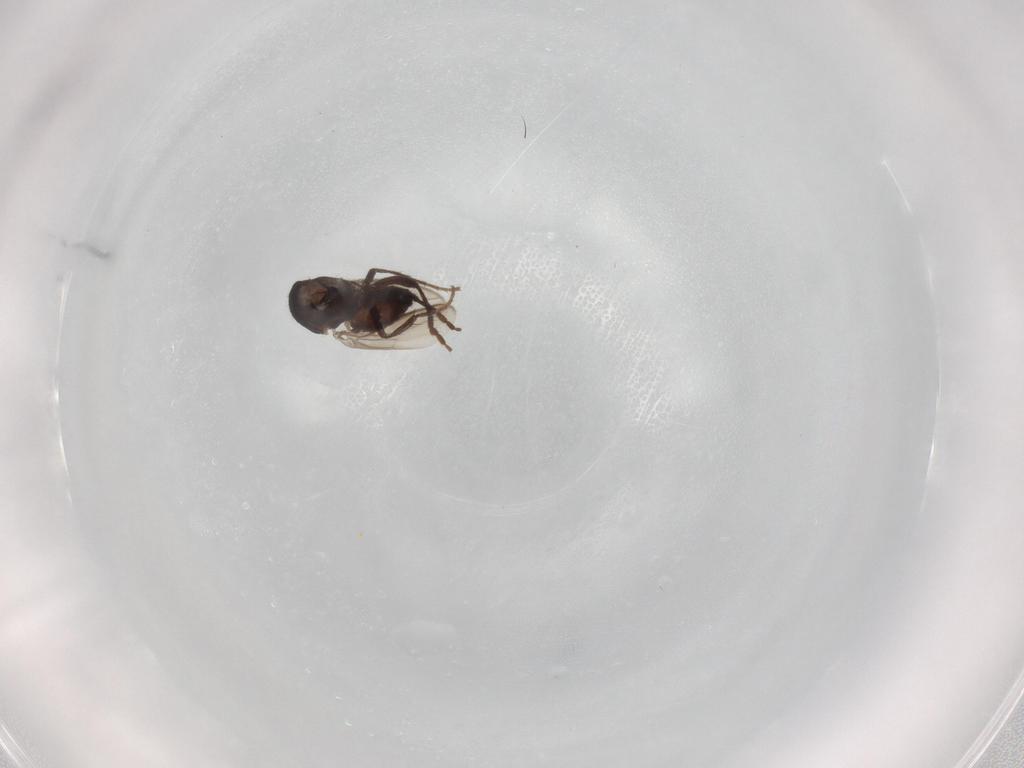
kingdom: Animalia
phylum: Arthropoda
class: Insecta
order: Diptera
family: Sphaeroceridae
